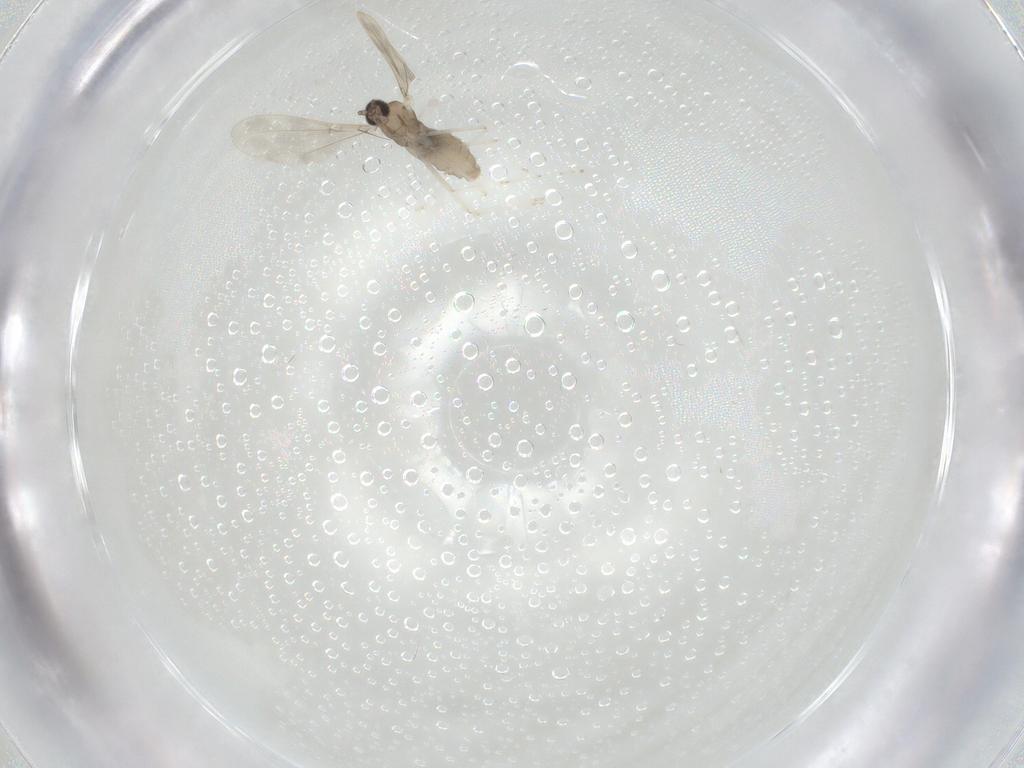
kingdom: Animalia
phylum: Arthropoda
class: Insecta
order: Diptera
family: Cecidomyiidae
